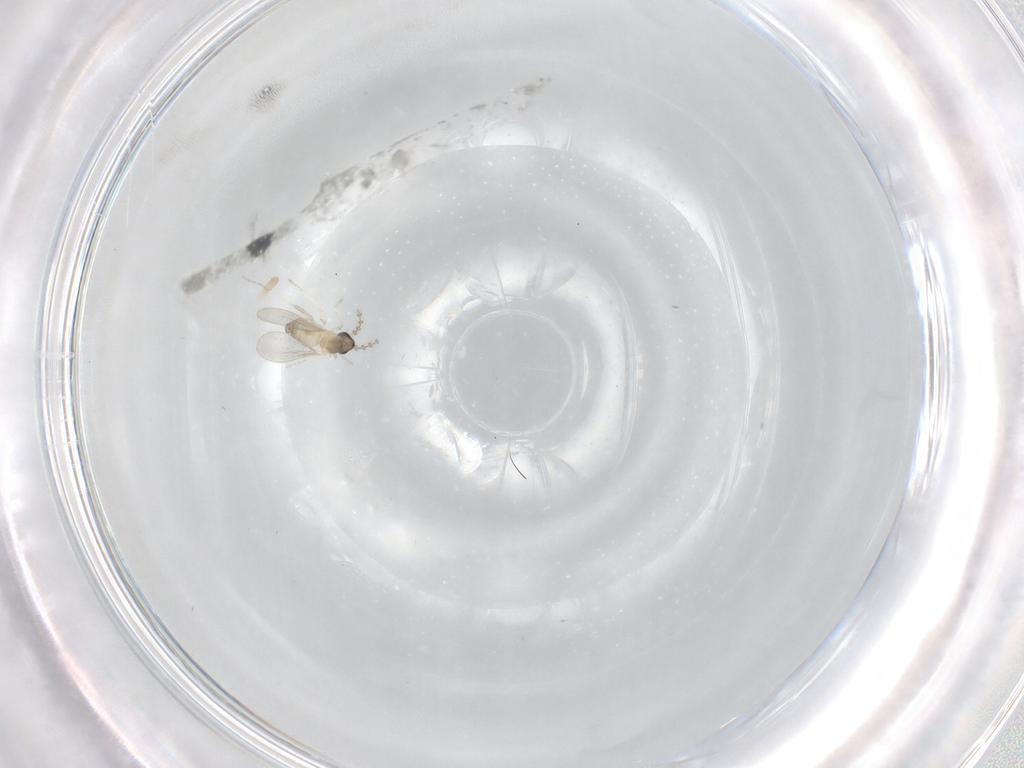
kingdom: Animalia
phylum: Arthropoda
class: Insecta
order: Diptera
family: Cecidomyiidae
